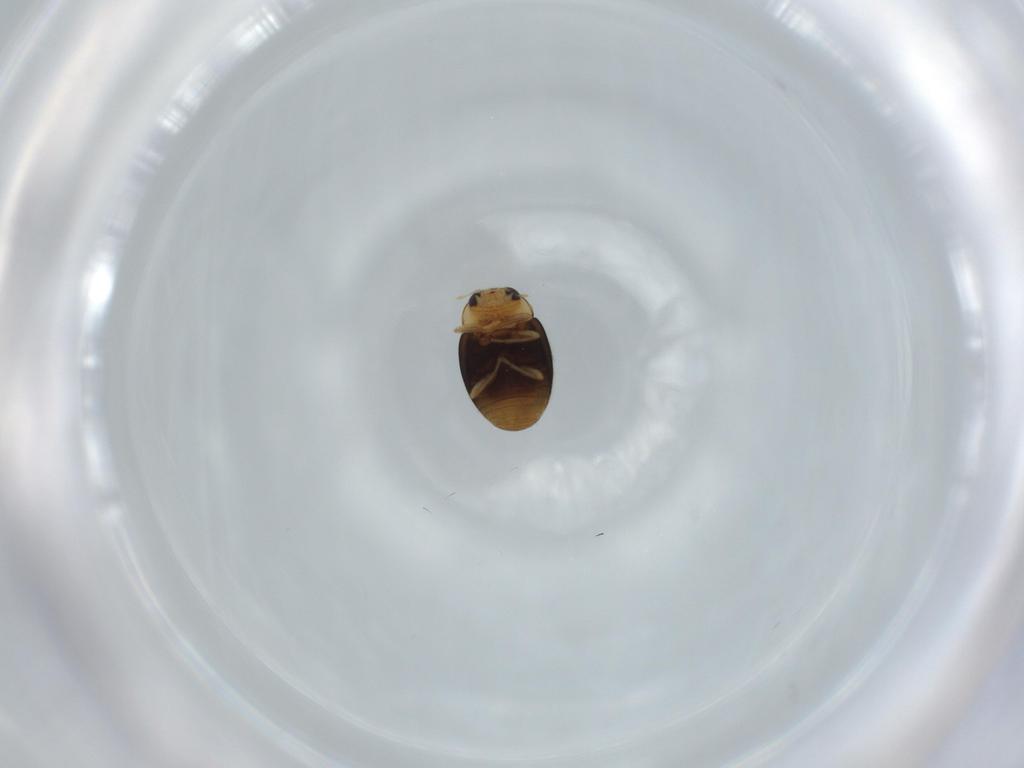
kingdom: Animalia
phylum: Arthropoda
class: Insecta
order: Coleoptera
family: Coccinellidae
